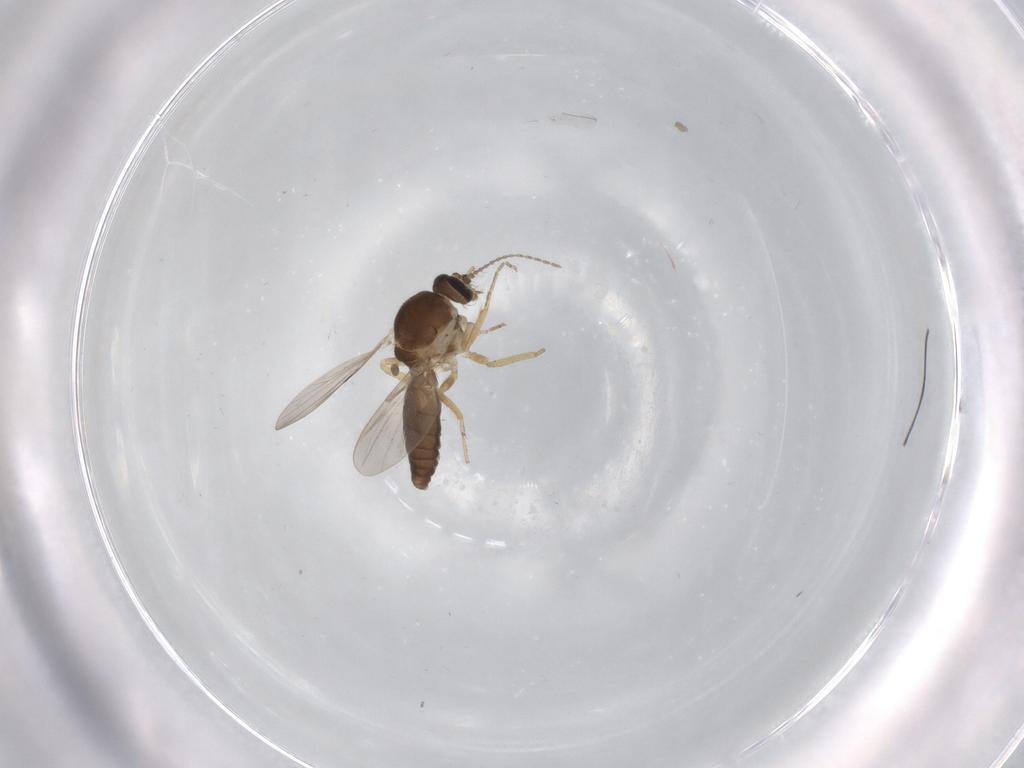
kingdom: Animalia
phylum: Arthropoda
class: Insecta
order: Diptera
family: Ceratopogonidae
